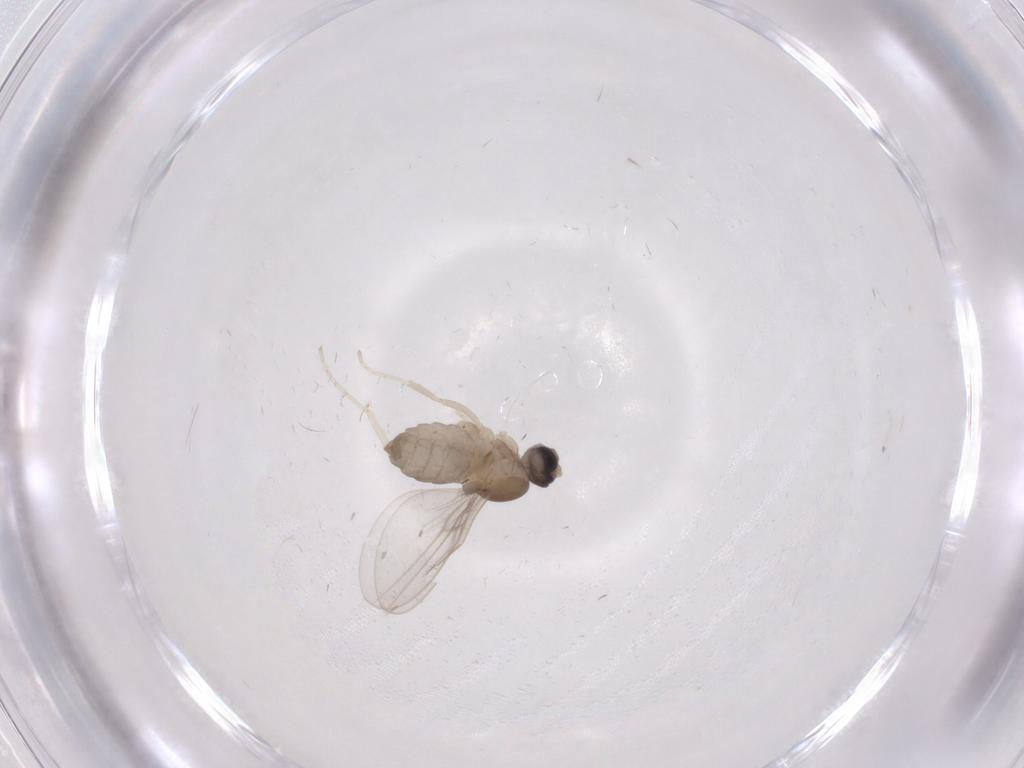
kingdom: Animalia
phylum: Arthropoda
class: Insecta
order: Diptera
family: Cecidomyiidae
